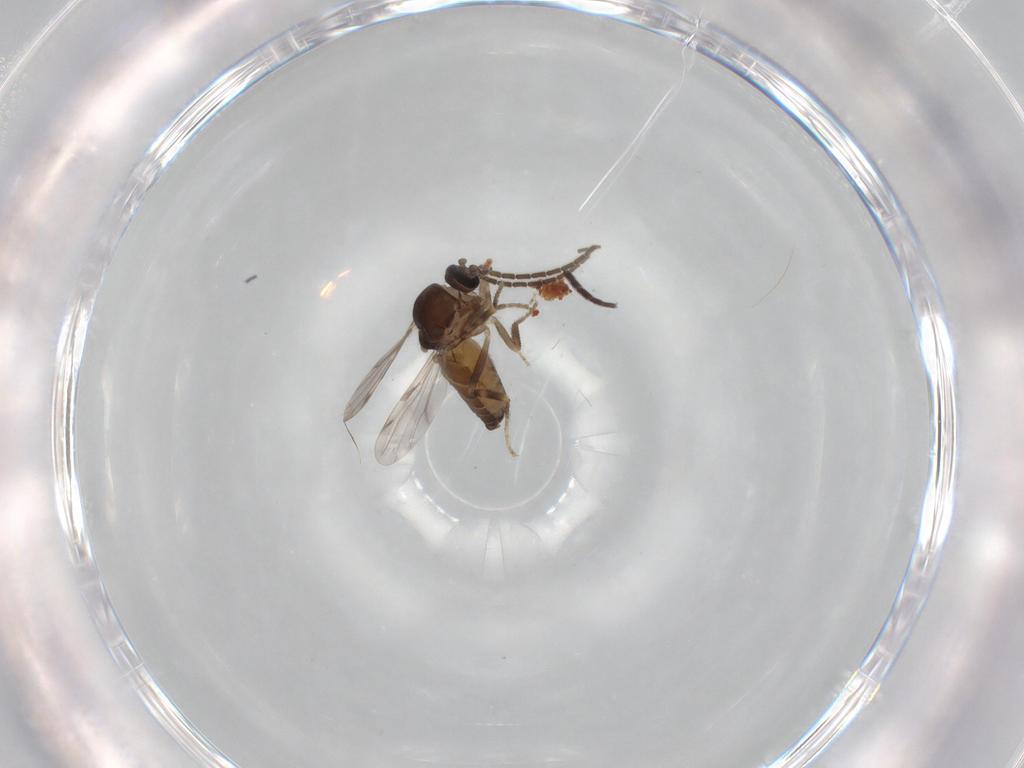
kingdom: Animalia
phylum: Arthropoda
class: Insecta
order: Diptera
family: Ceratopogonidae
